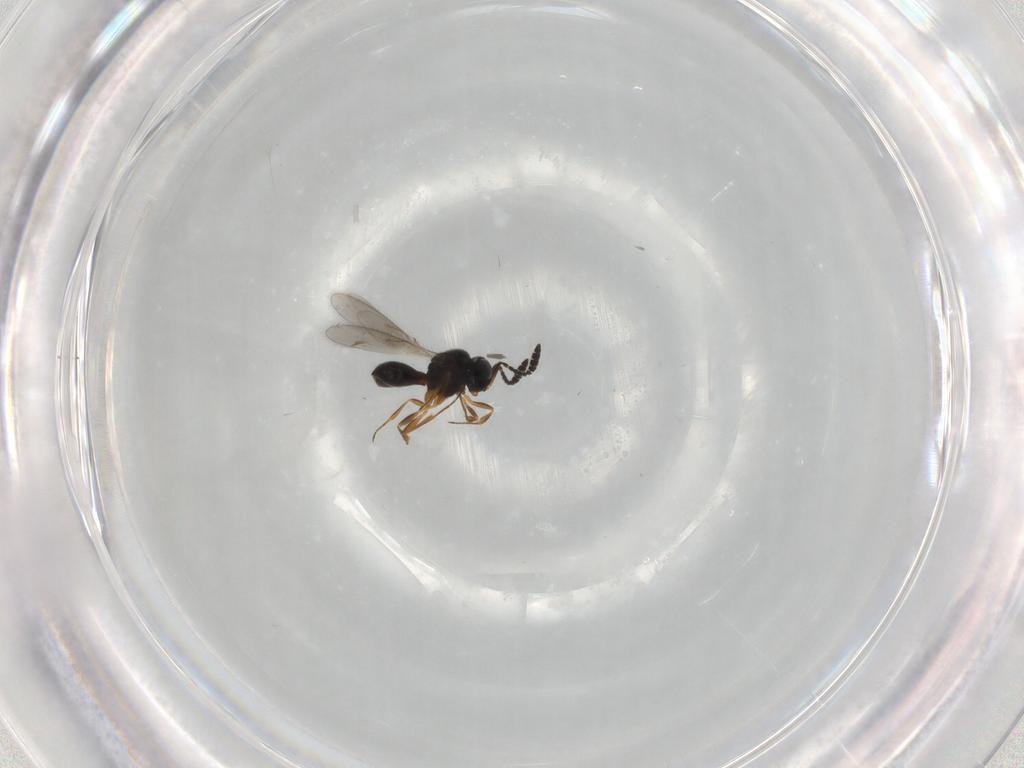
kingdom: Animalia
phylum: Arthropoda
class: Insecta
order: Hymenoptera
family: Scelionidae
